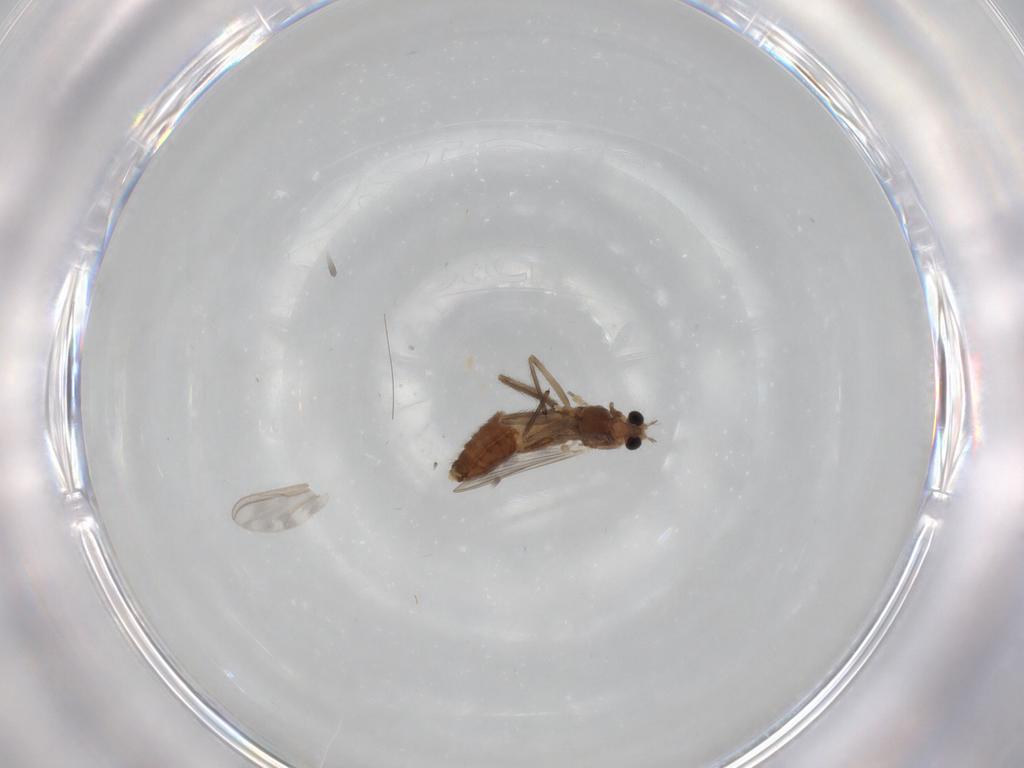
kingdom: Animalia
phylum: Arthropoda
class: Insecta
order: Diptera
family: Chironomidae
